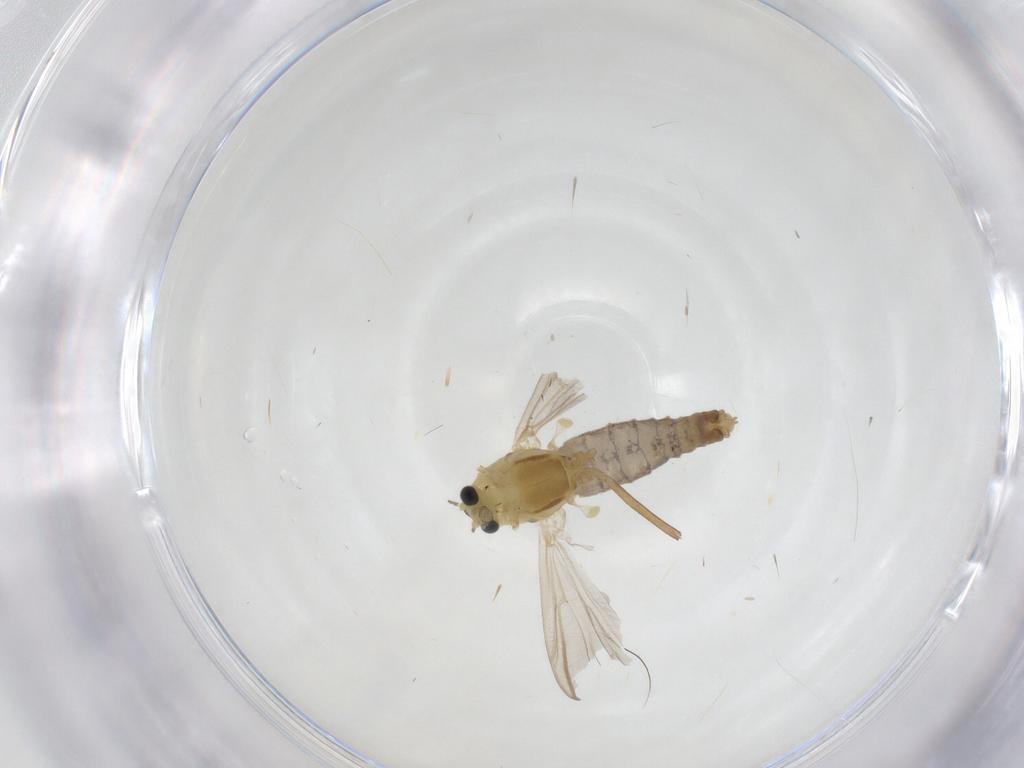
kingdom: Animalia
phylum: Arthropoda
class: Insecta
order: Diptera
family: Chironomidae
